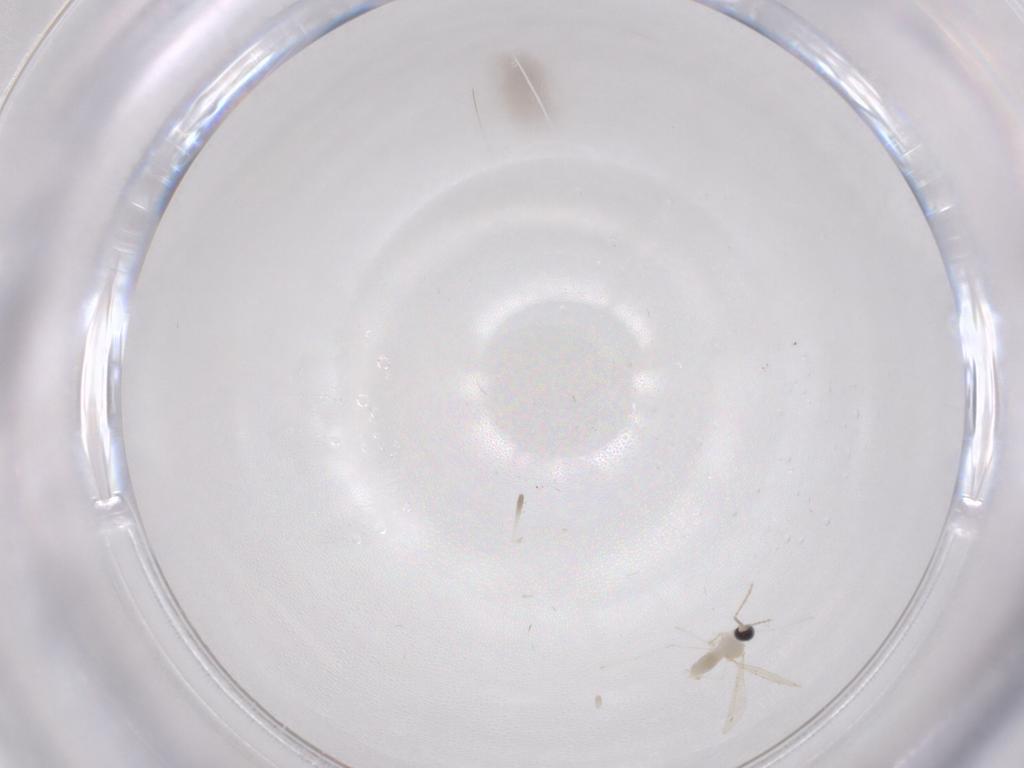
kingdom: Animalia
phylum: Arthropoda
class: Insecta
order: Diptera
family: Cecidomyiidae
